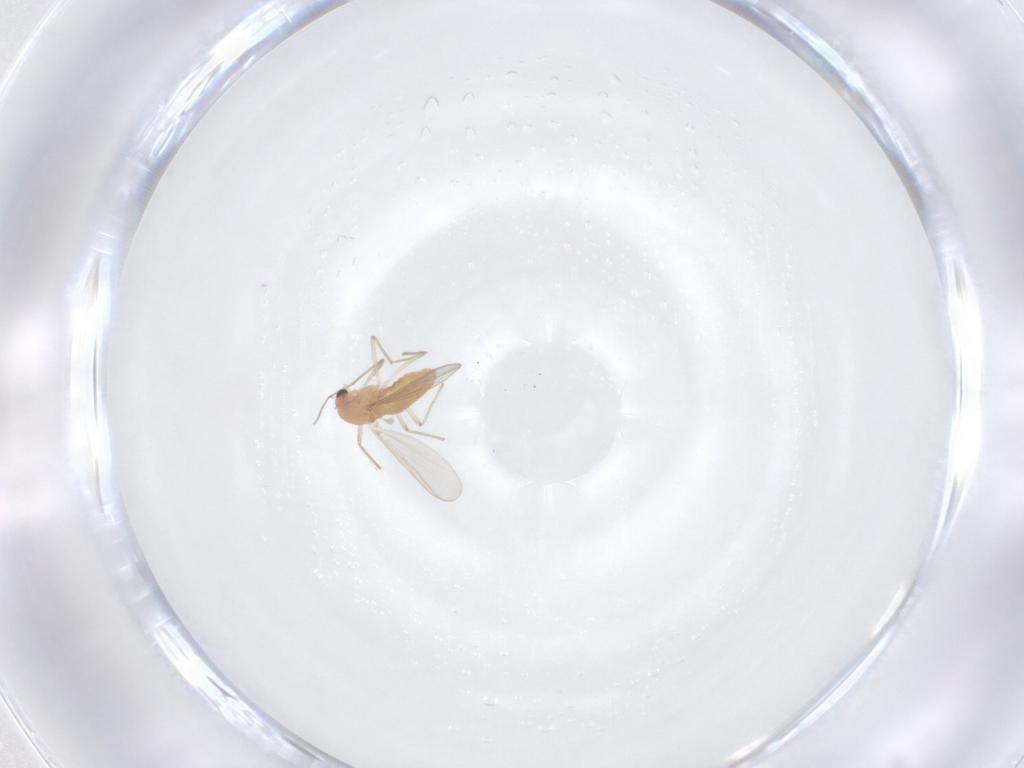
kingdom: Animalia
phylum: Arthropoda
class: Insecta
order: Diptera
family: Chironomidae
